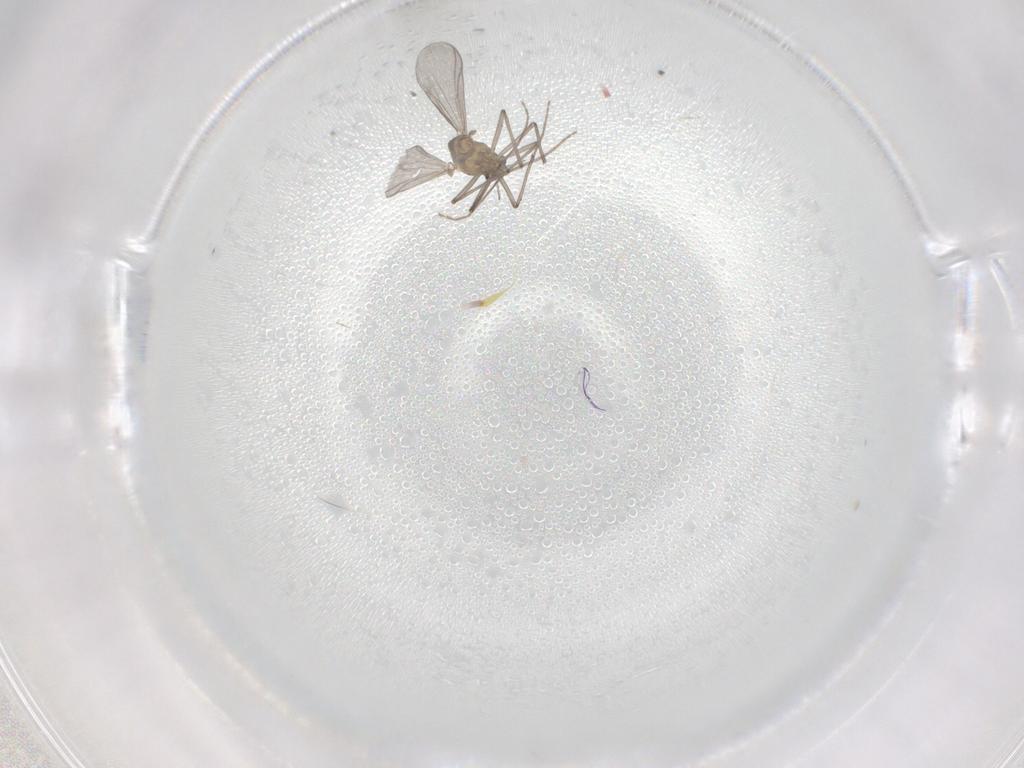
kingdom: Animalia
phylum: Arthropoda
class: Insecta
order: Diptera
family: Chironomidae
